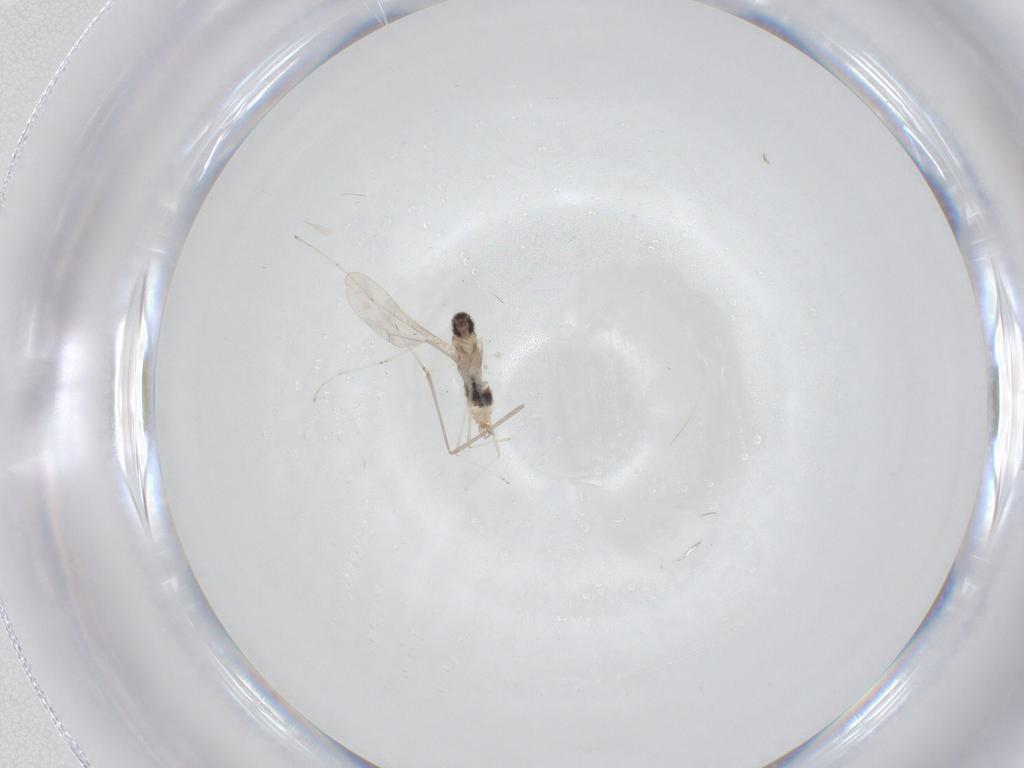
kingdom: Animalia
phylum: Arthropoda
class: Insecta
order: Diptera
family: Cecidomyiidae
